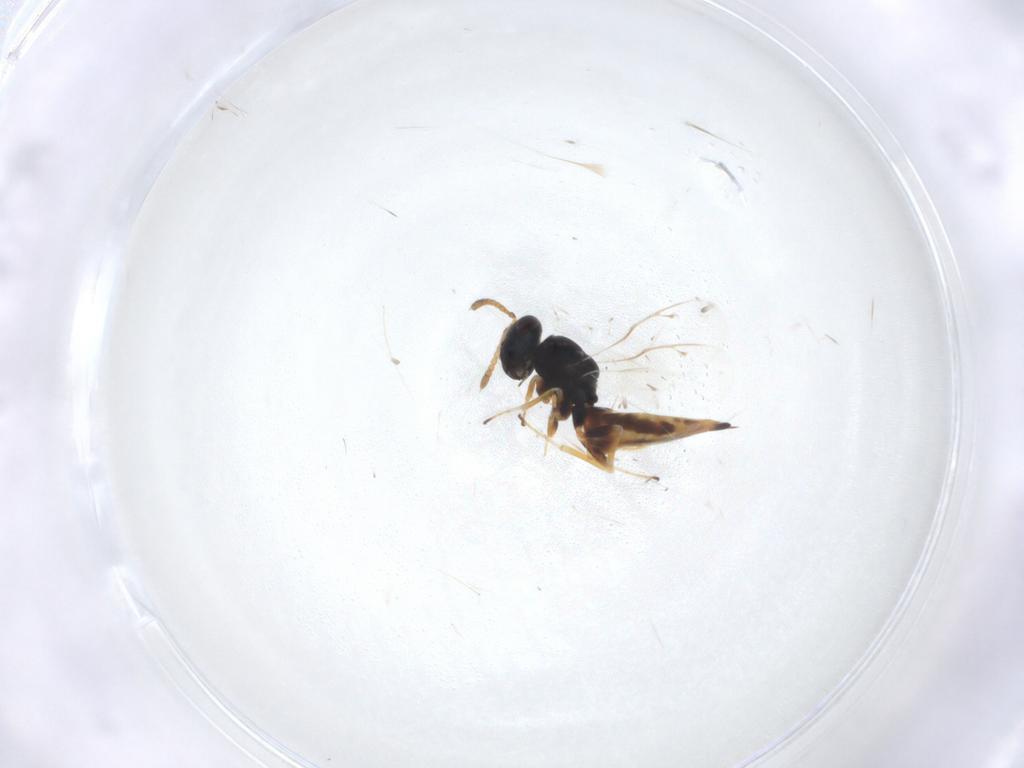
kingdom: Animalia
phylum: Arthropoda
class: Insecta
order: Hymenoptera
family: Pteromalidae
